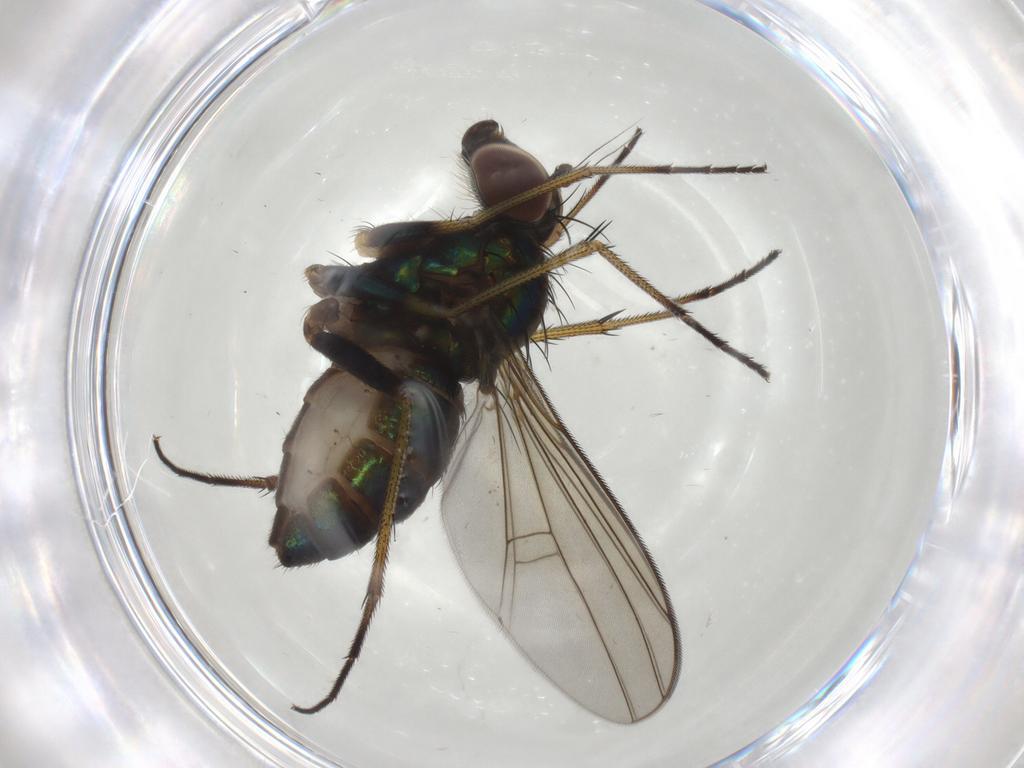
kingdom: Animalia
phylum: Arthropoda
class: Insecta
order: Diptera
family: Dolichopodidae
